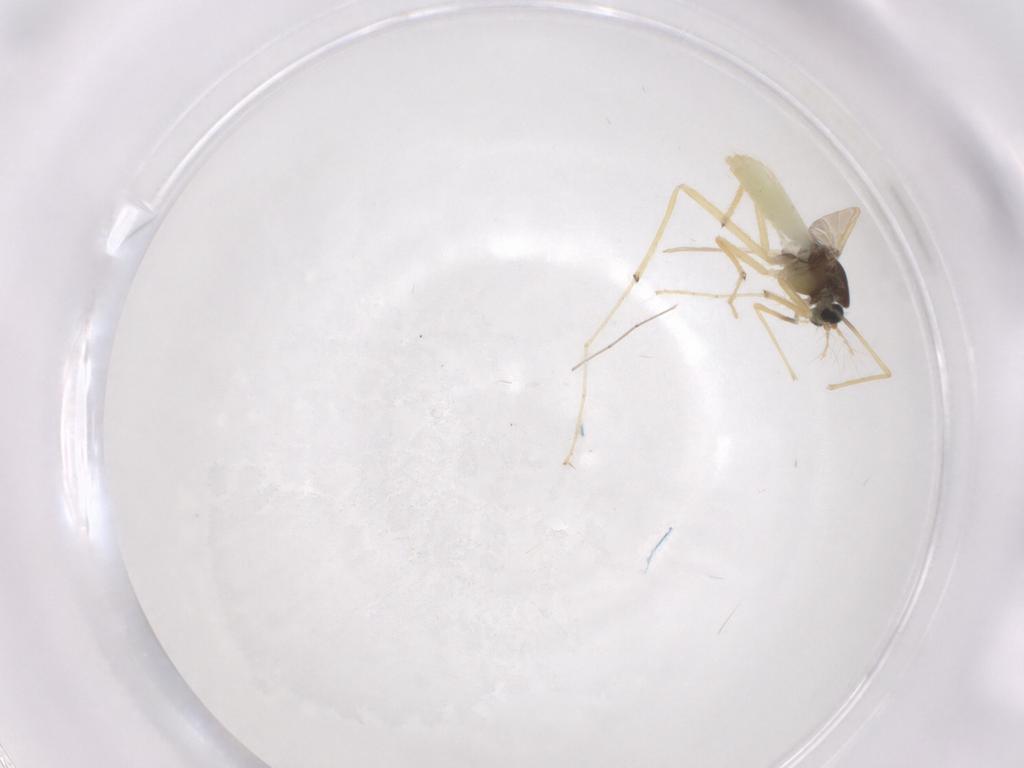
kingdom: Animalia
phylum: Arthropoda
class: Insecta
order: Diptera
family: Chironomidae
